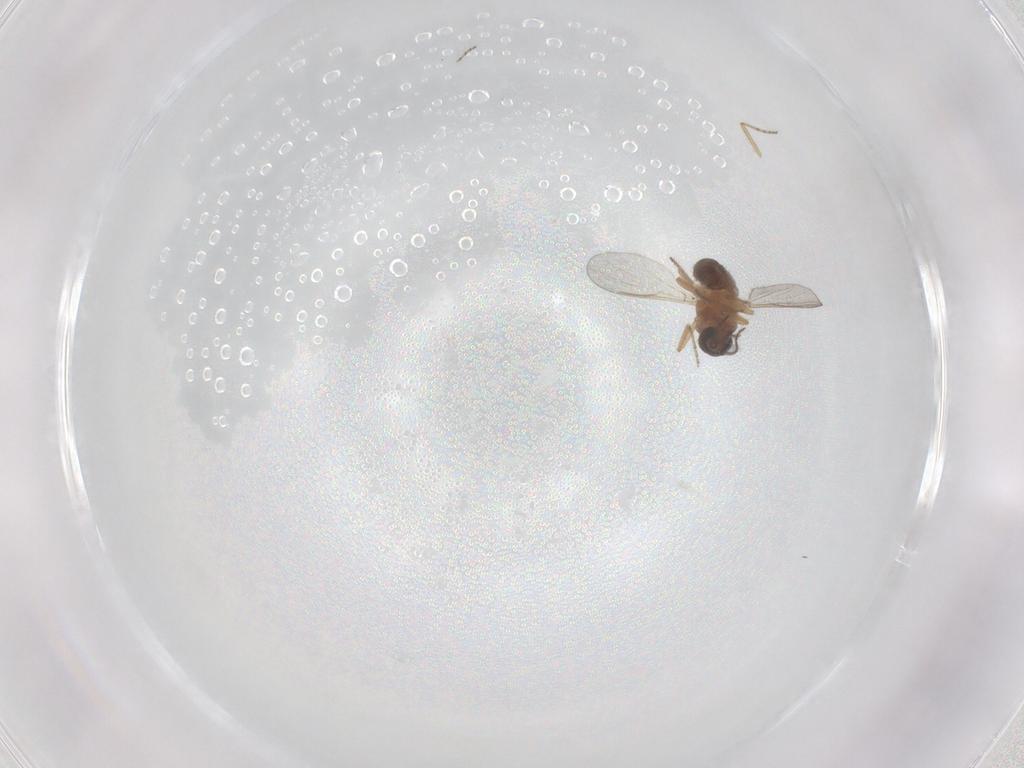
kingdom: Animalia
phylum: Arthropoda
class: Insecta
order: Diptera
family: Ceratopogonidae
